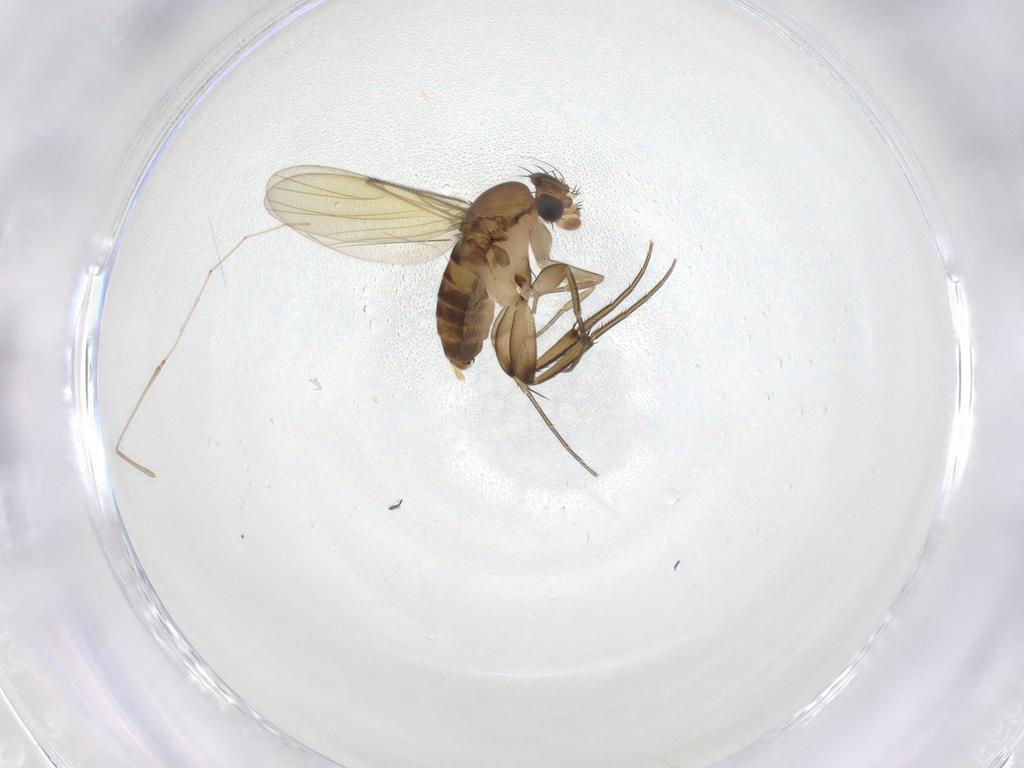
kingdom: Animalia
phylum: Arthropoda
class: Insecta
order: Diptera
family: Phoridae
